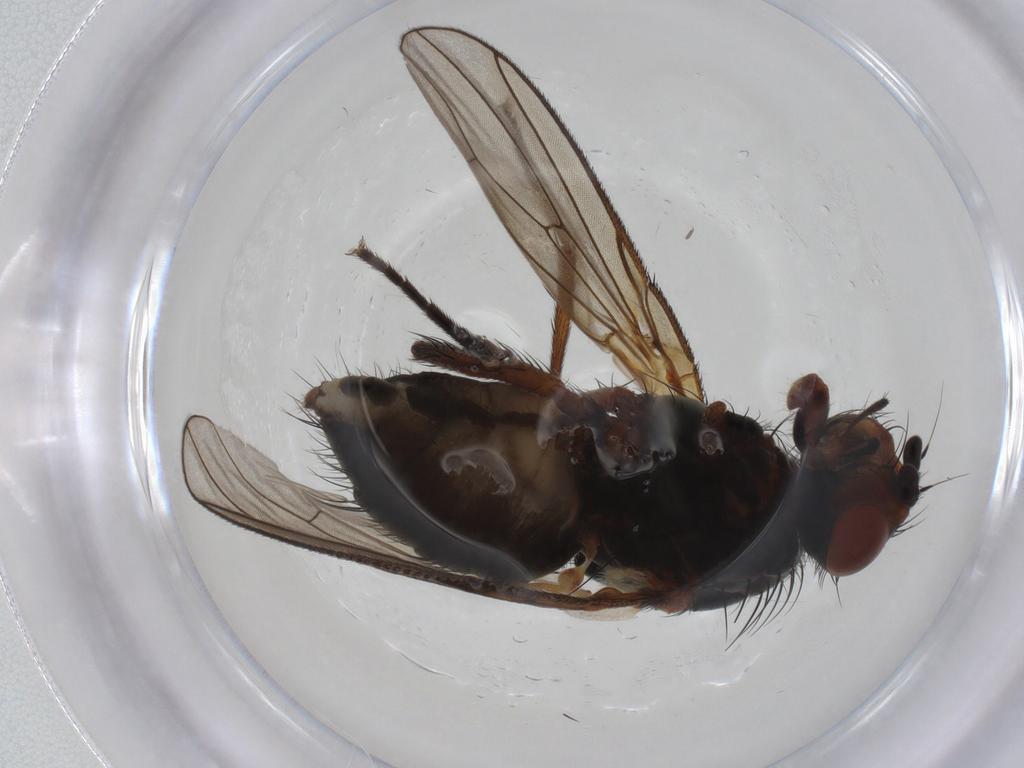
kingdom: Animalia
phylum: Arthropoda
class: Insecta
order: Diptera
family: Anthomyiidae
